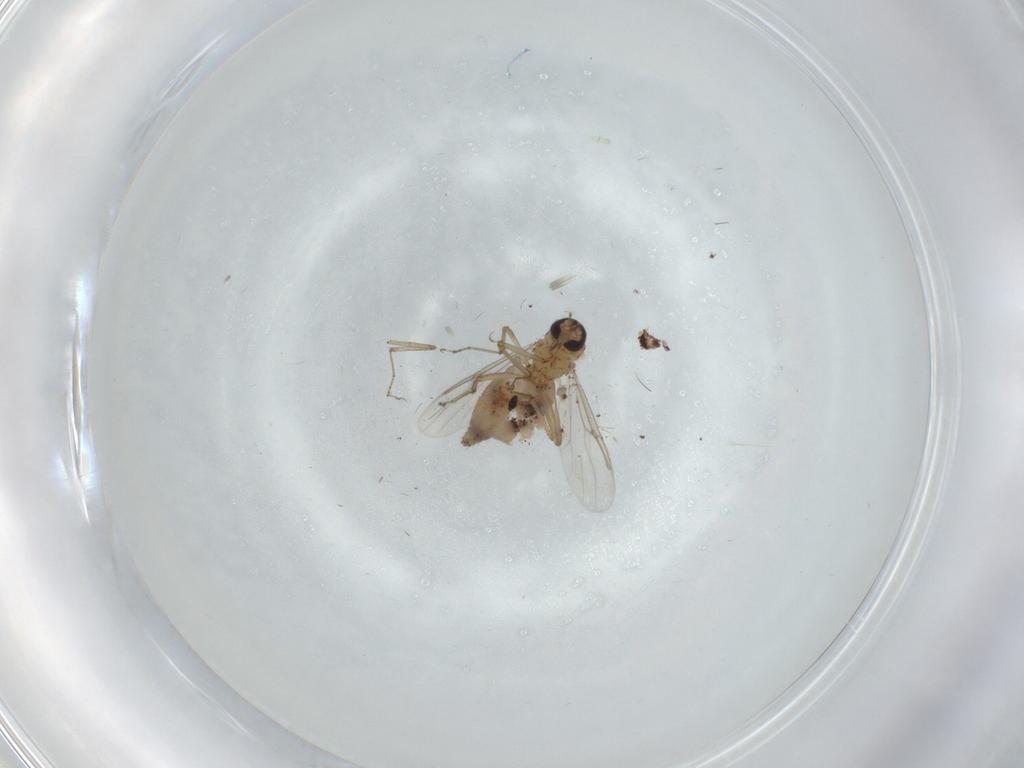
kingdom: Animalia
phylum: Arthropoda
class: Insecta
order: Diptera
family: Ceratopogonidae
